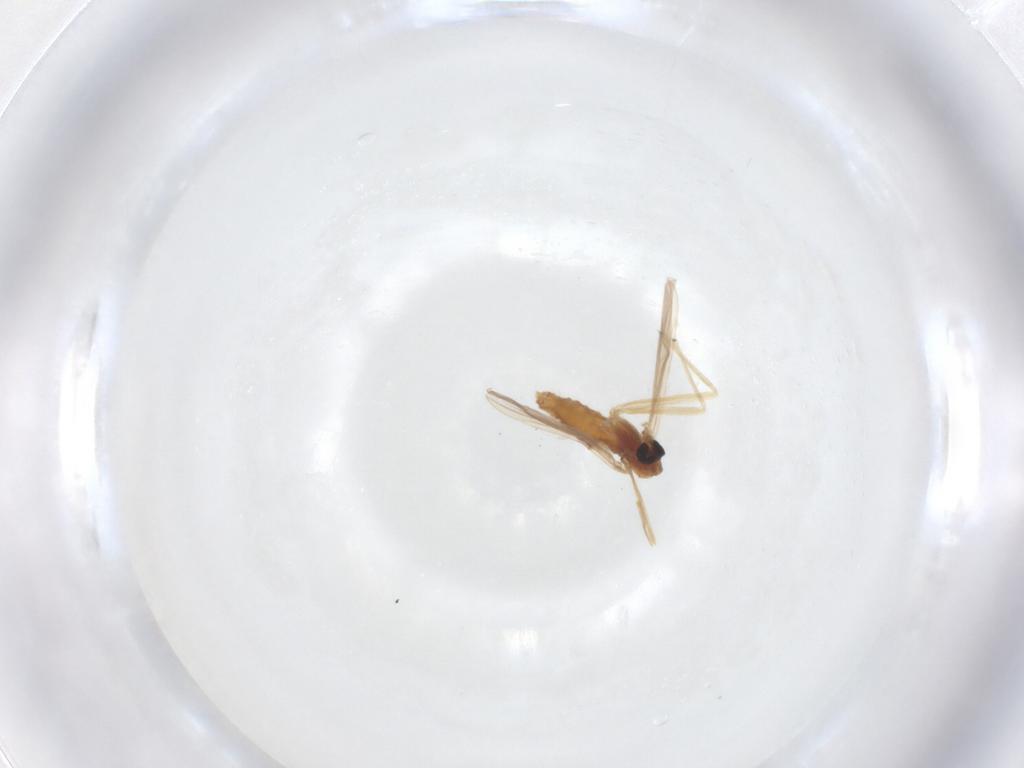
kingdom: Animalia
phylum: Arthropoda
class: Insecta
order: Diptera
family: Chironomidae
